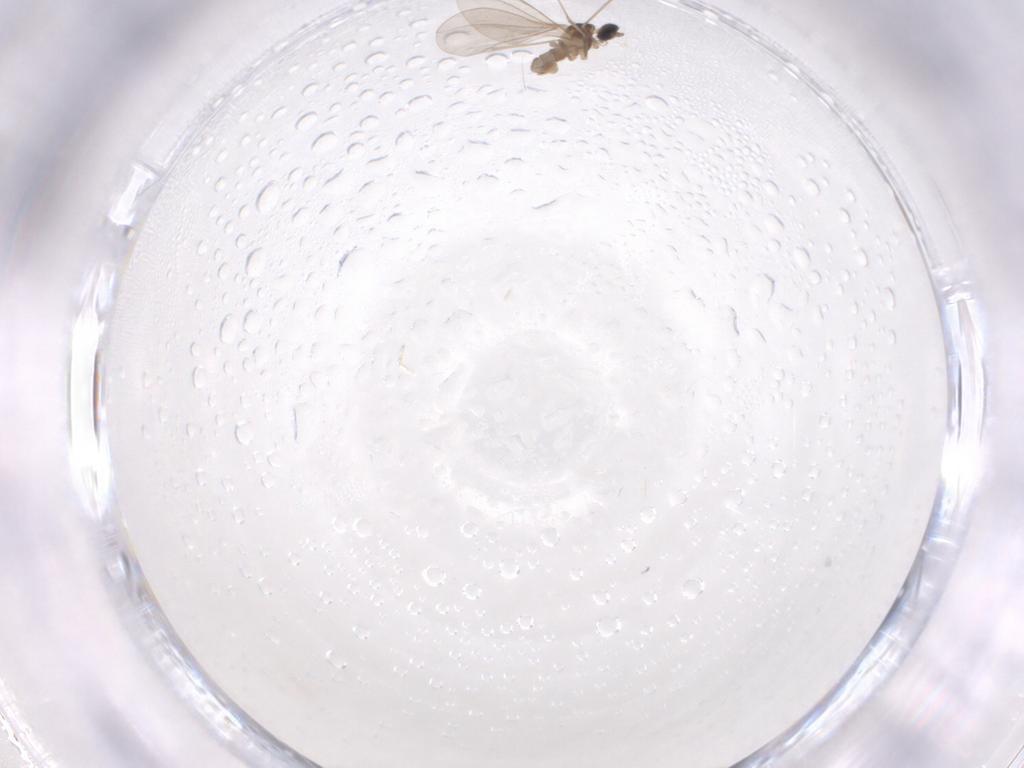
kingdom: Animalia
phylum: Arthropoda
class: Insecta
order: Diptera
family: Cecidomyiidae
